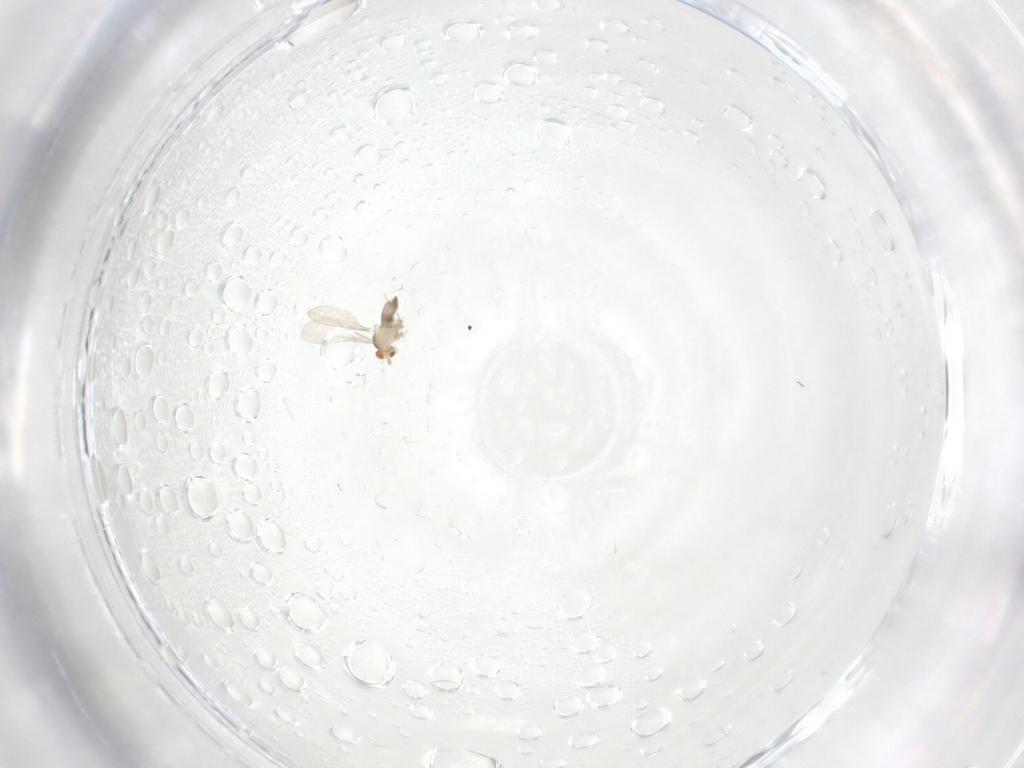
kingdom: Animalia
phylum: Arthropoda
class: Insecta
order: Diptera
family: Cecidomyiidae
